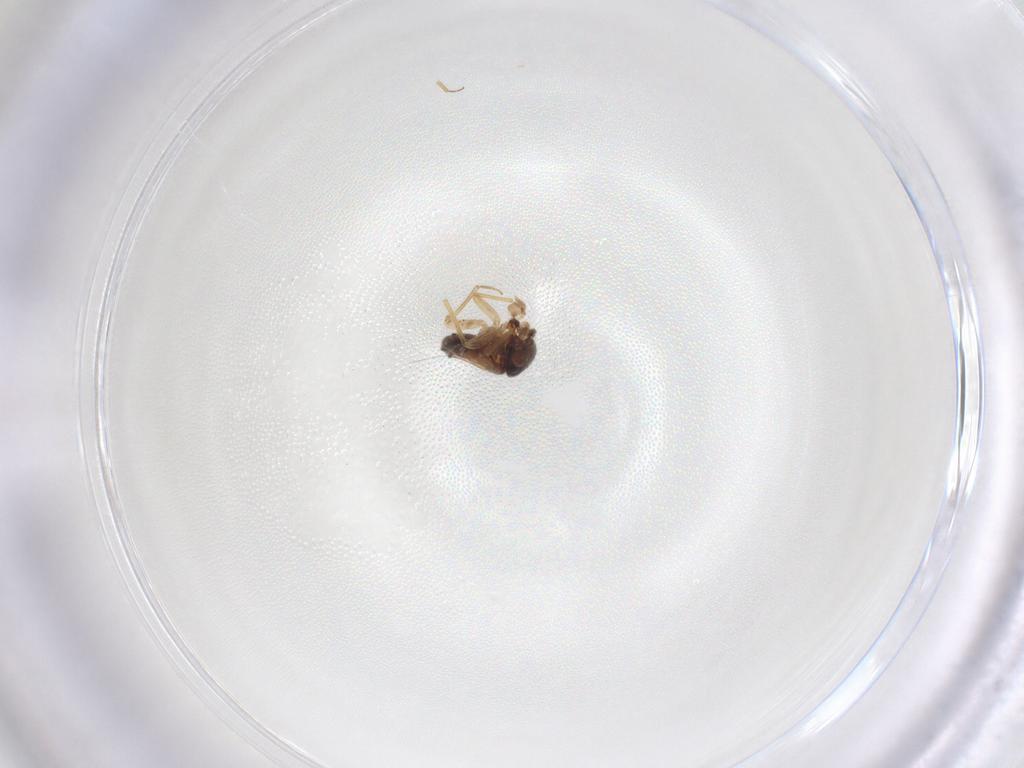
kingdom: Animalia
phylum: Arthropoda
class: Insecta
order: Psocodea
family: Peripsocidae
